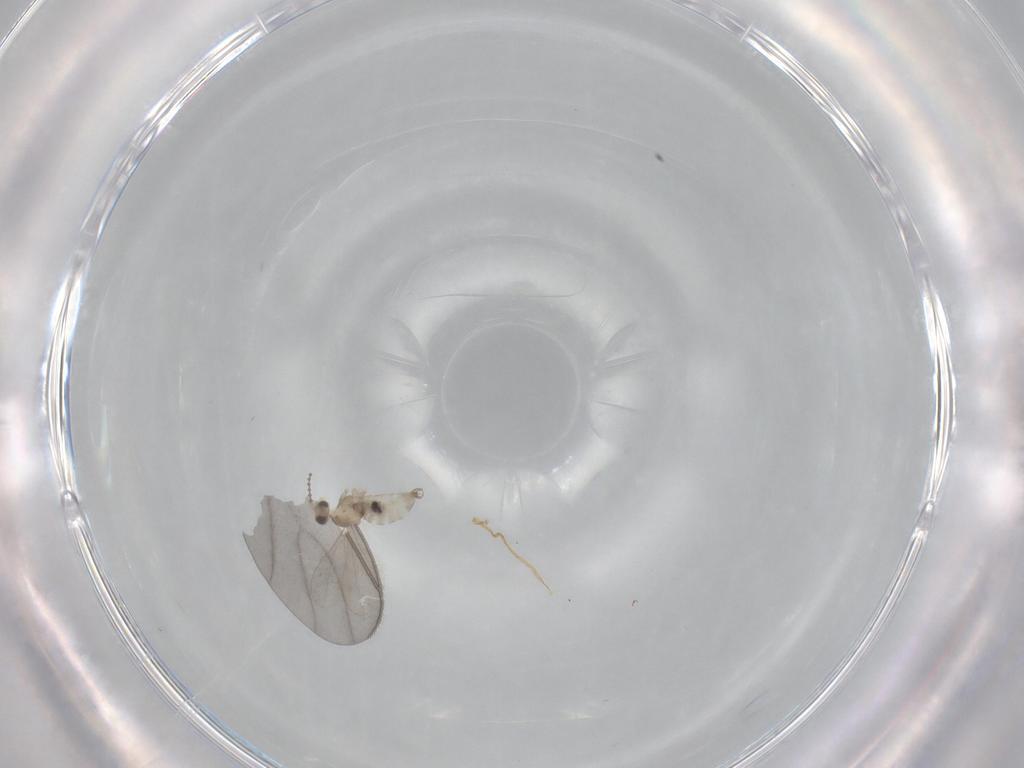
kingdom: Animalia
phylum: Arthropoda
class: Insecta
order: Diptera
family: Cecidomyiidae
